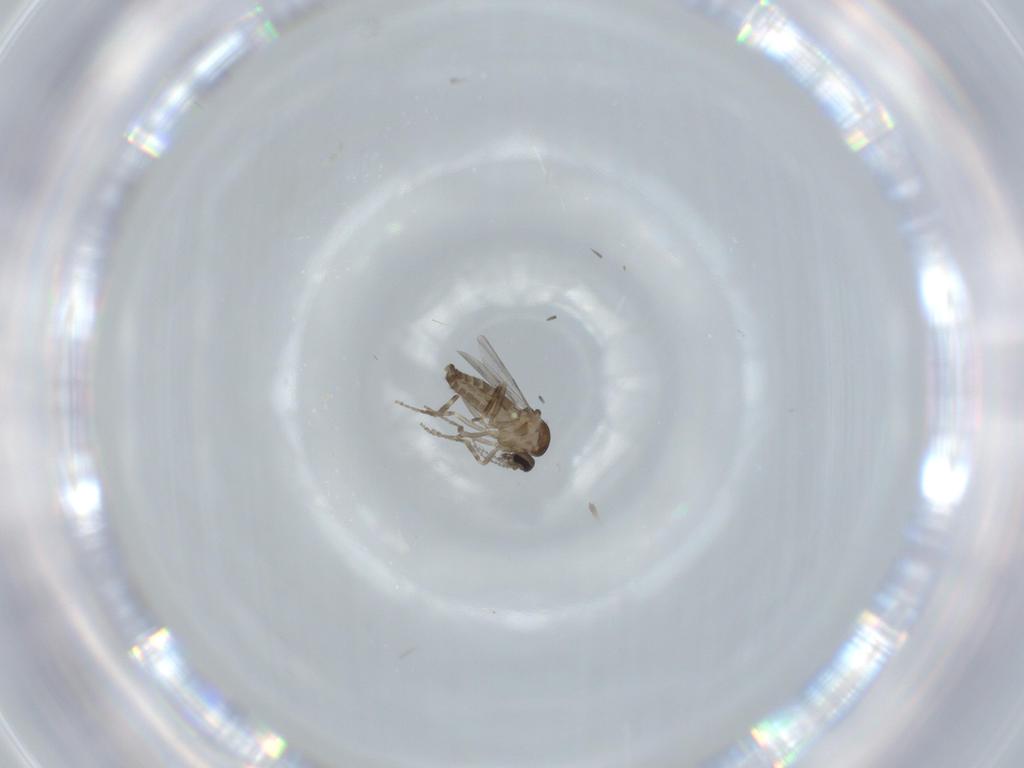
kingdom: Animalia
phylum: Arthropoda
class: Insecta
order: Diptera
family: Ceratopogonidae
